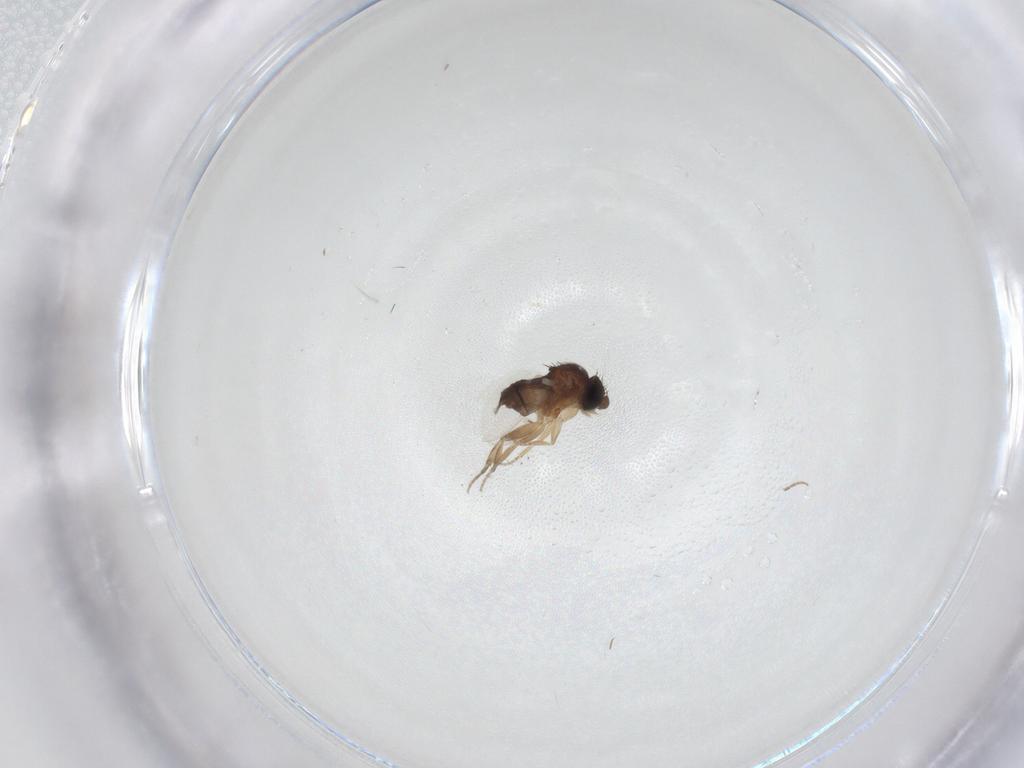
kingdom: Animalia
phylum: Arthropoda
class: Insecta
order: Diptera
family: Phoridae
